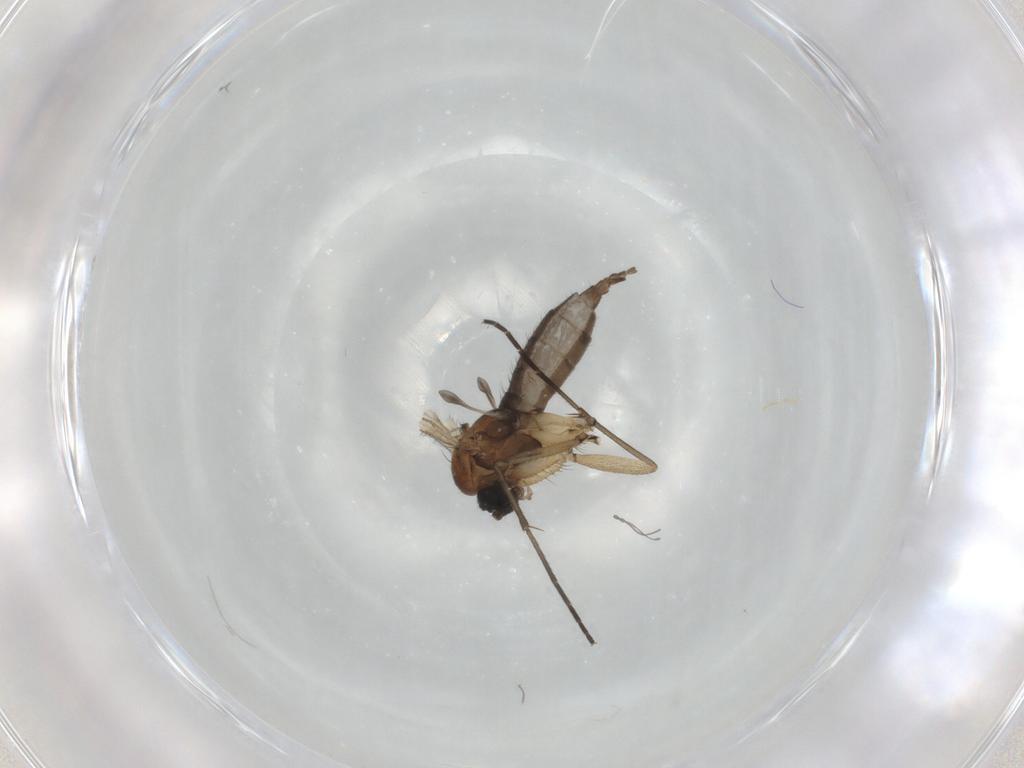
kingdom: Animalia
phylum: Arthropoda
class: Insecta
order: Diptera
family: Sciaridae
